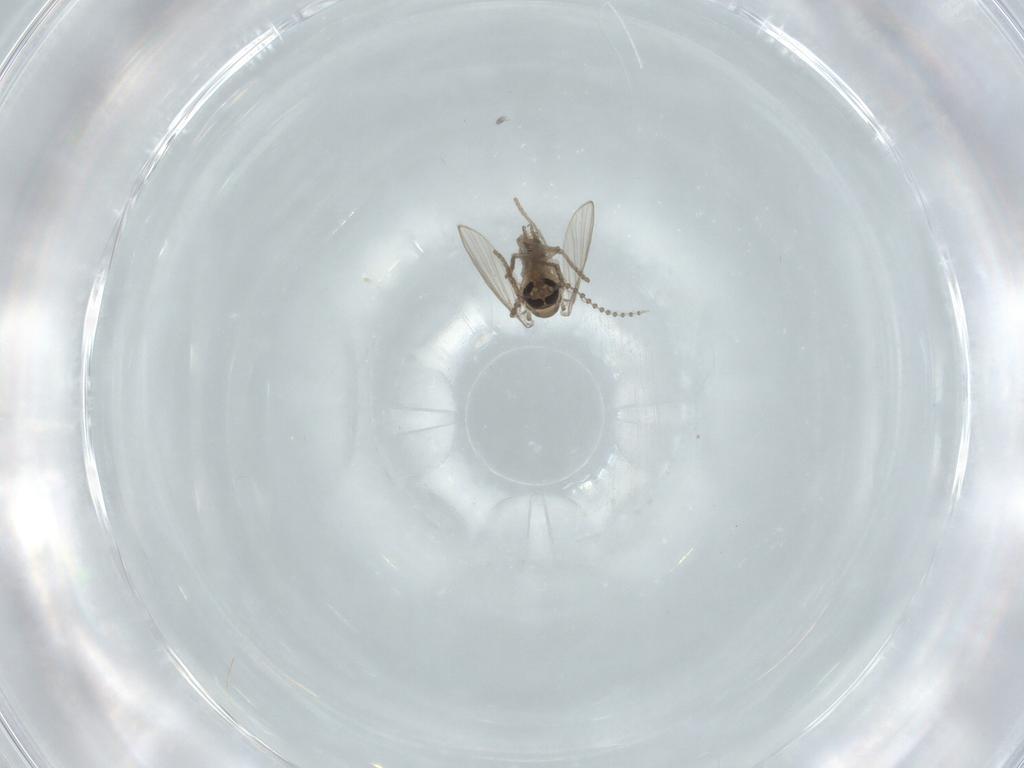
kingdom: Animalia
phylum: Arthropoda
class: Insecta
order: Diptera
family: Psychodidae
